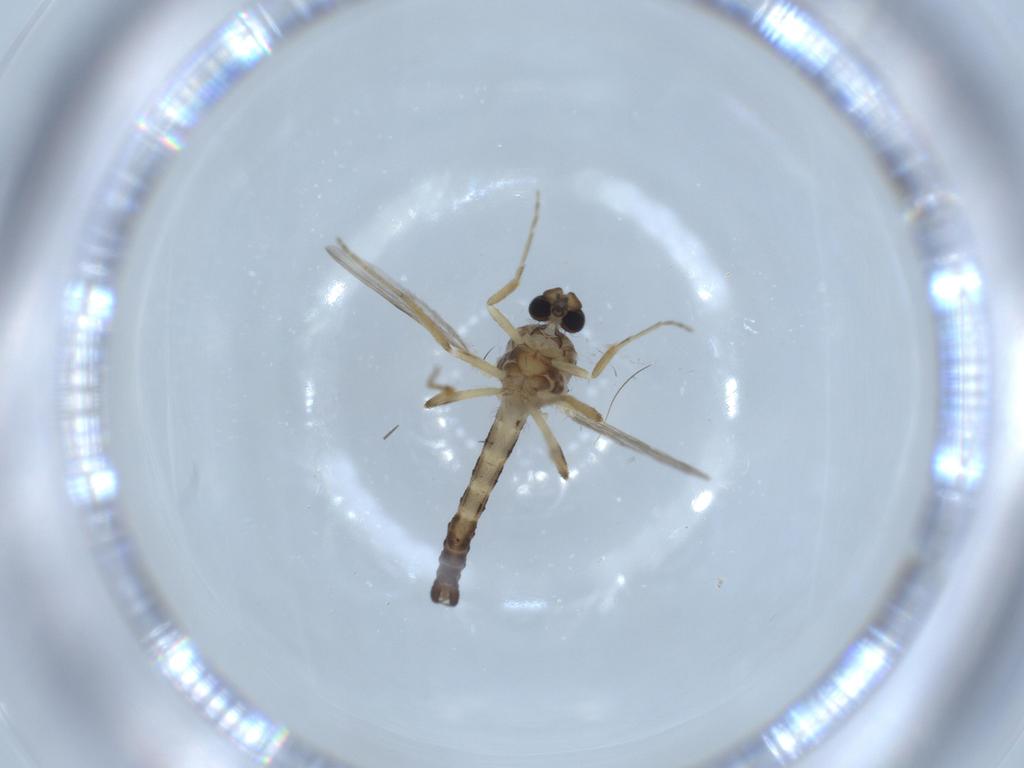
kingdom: Animalia
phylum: Arthropoda
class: Insecta
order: Diptera
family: Ceratopogonidae
